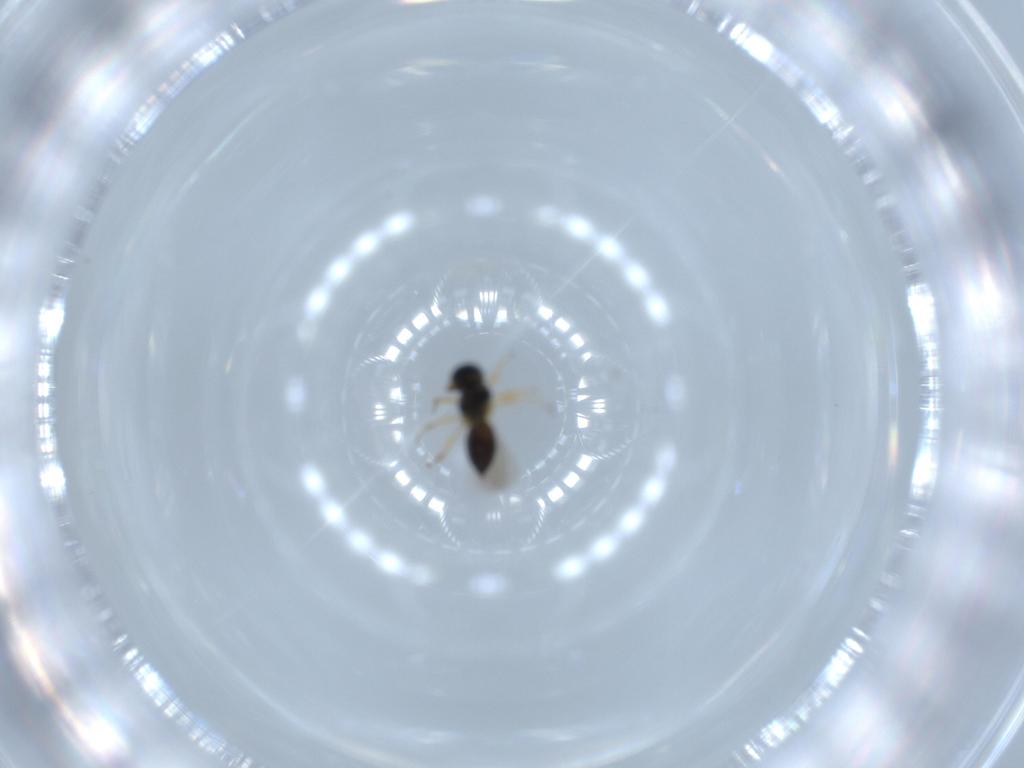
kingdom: Animalia
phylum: Arthropoda
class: Insecta
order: Hymenoptera
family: Scelionidae
